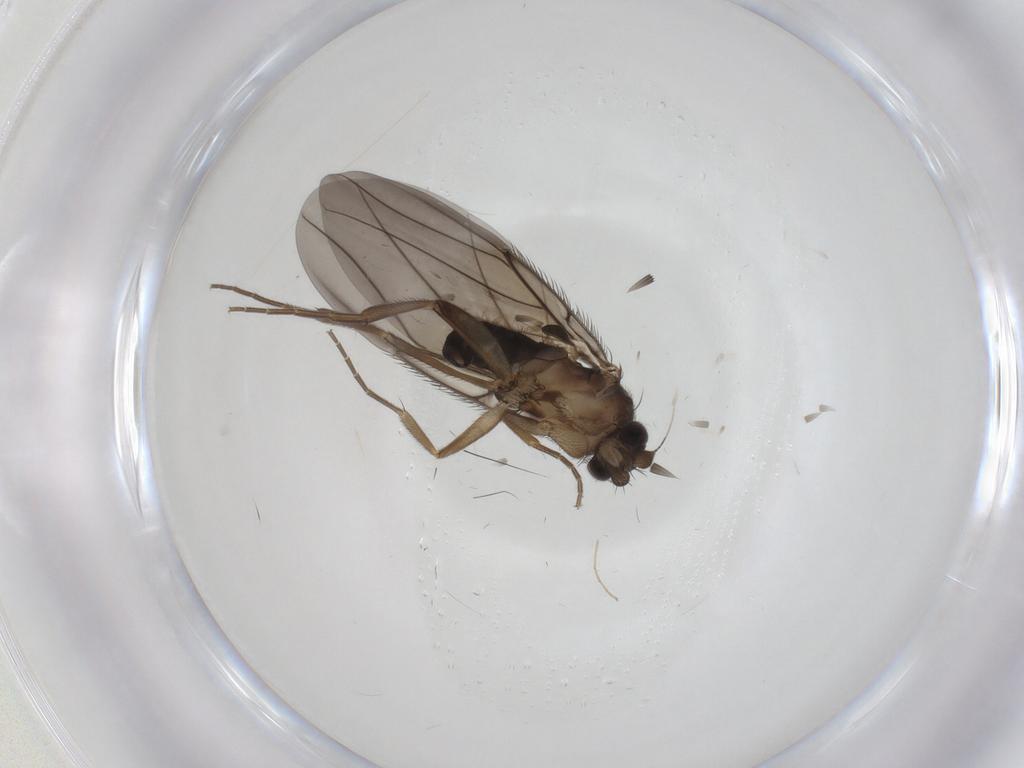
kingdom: Animalia
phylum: Arthropoda
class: Insecta
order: Diptera
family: Phoridae
